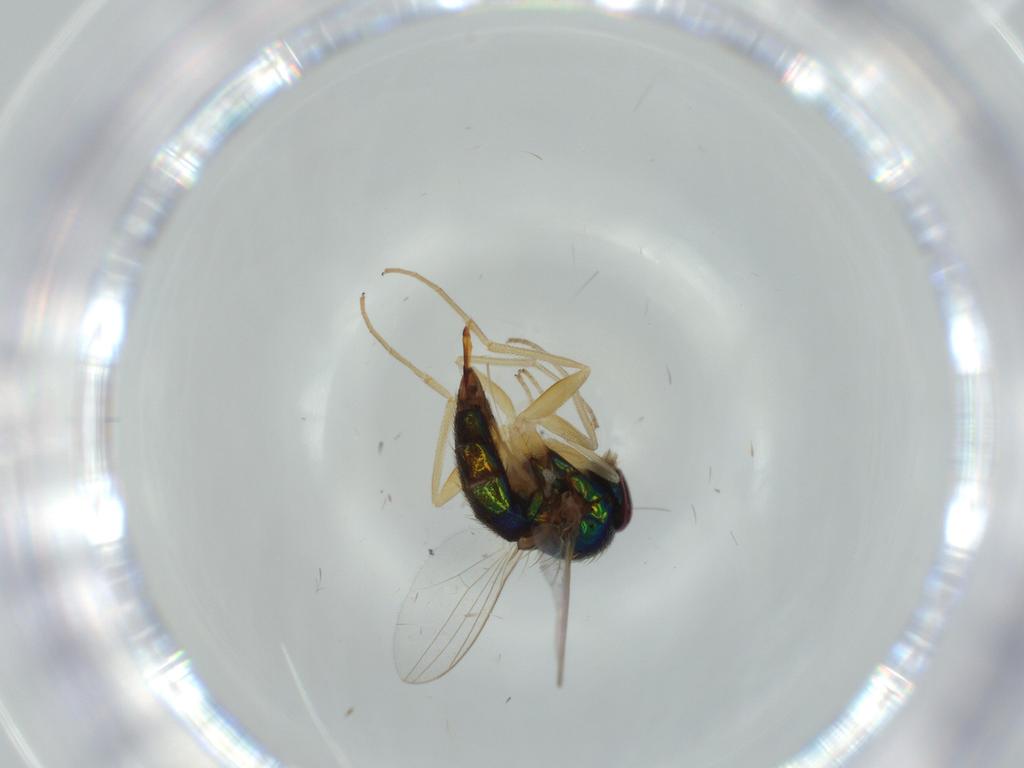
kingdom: Animalia
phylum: Arthropoda
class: Insecta
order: Diptera
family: Dolichopodidae
